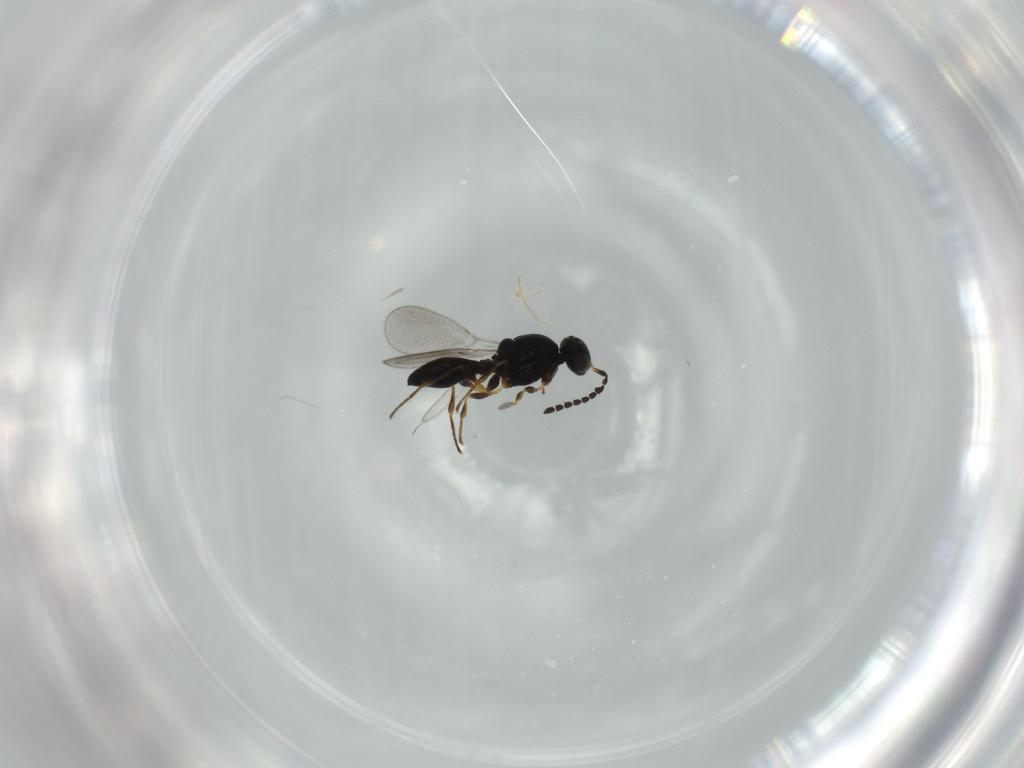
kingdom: Animalia
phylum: Arthropoda
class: Insecta
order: Hymenoptera
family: Platygastridae
